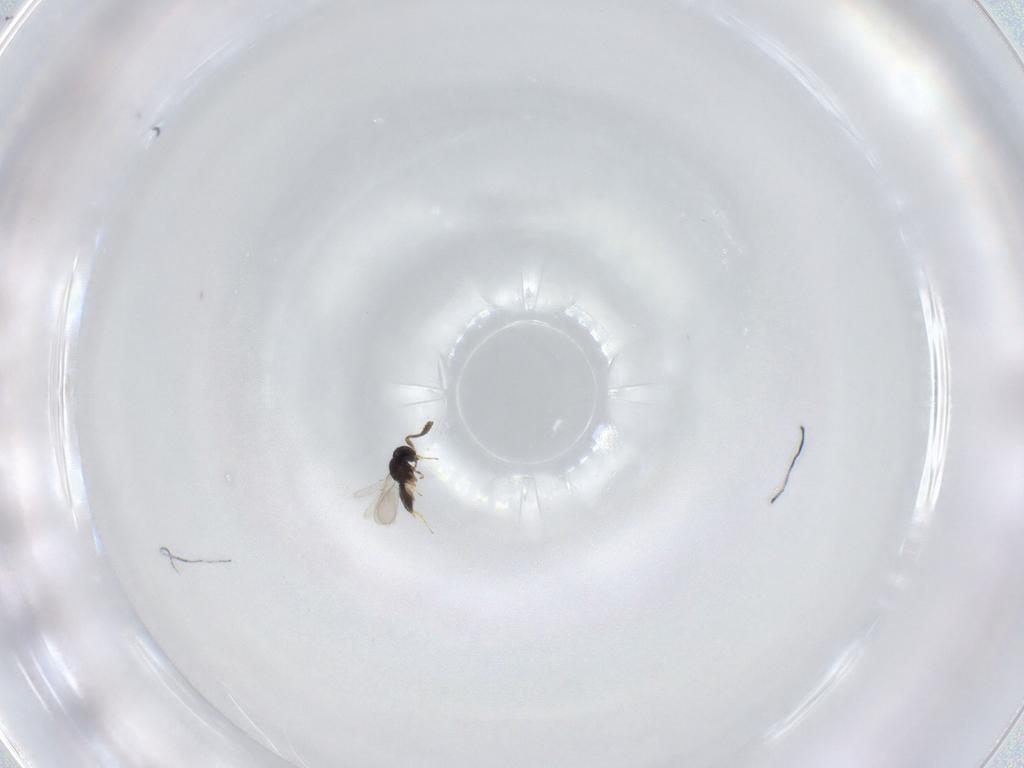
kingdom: Animalia
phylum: Arthropoda
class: Insecta
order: Hymenoptera
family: Scelionidae
